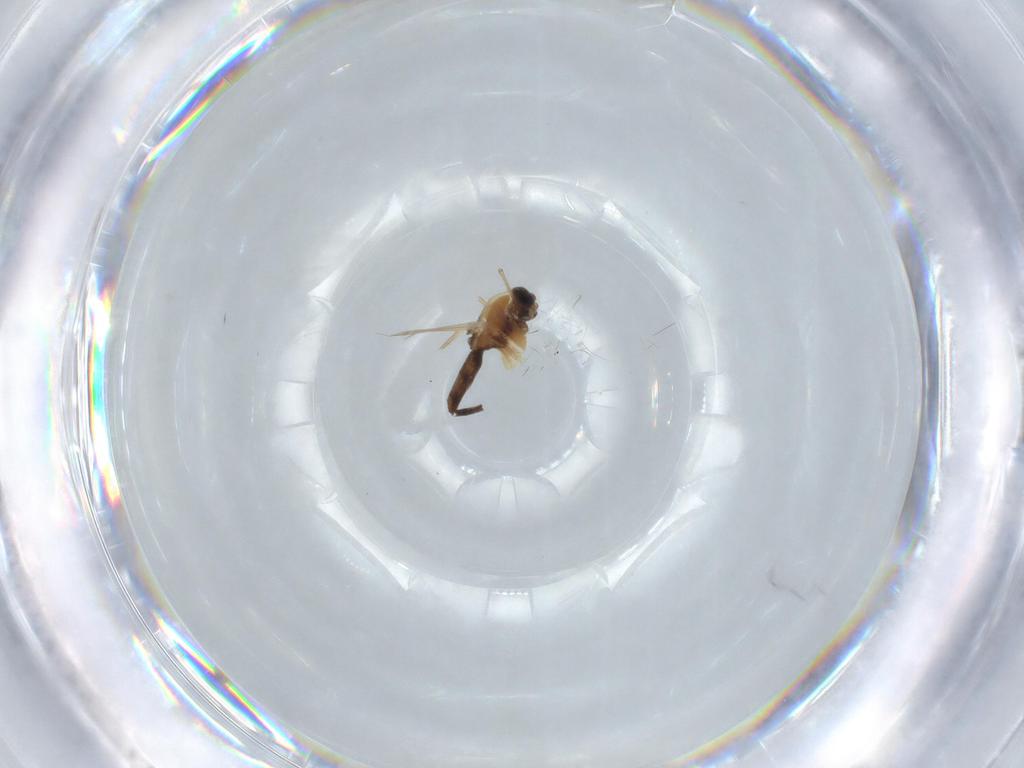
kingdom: Animalia
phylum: Arthropoda
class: Insecta
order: Diptera
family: Chironomidae
